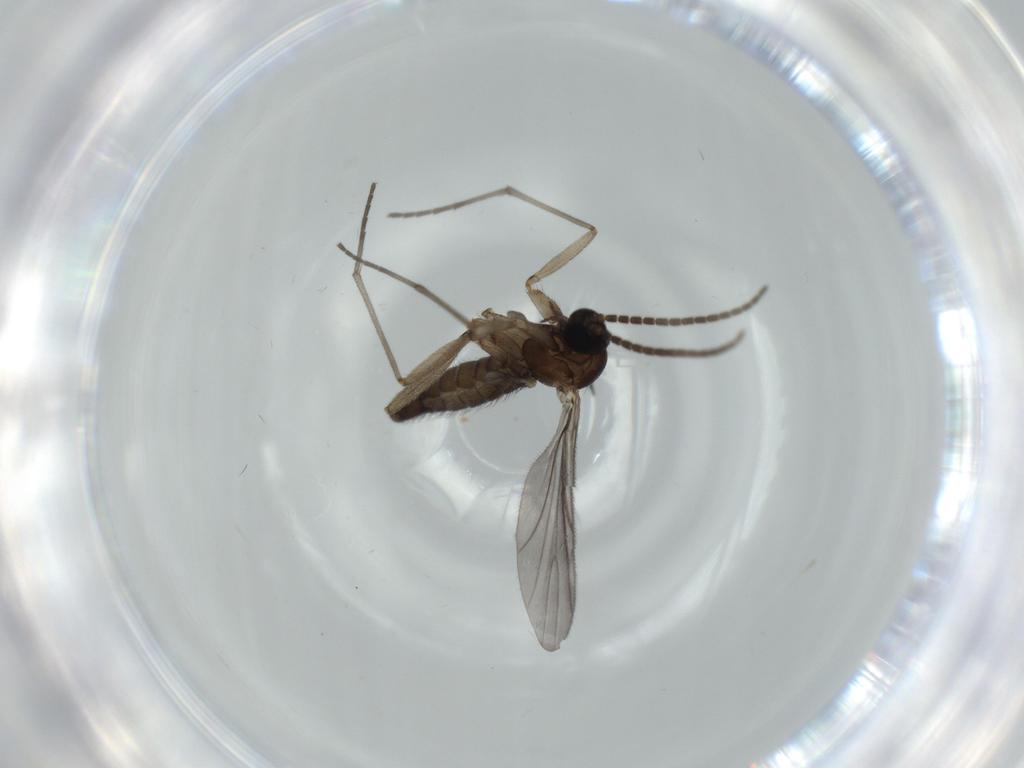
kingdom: Animalia
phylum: Arthropoda
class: Insecta
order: Diptera
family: Sciaridae
